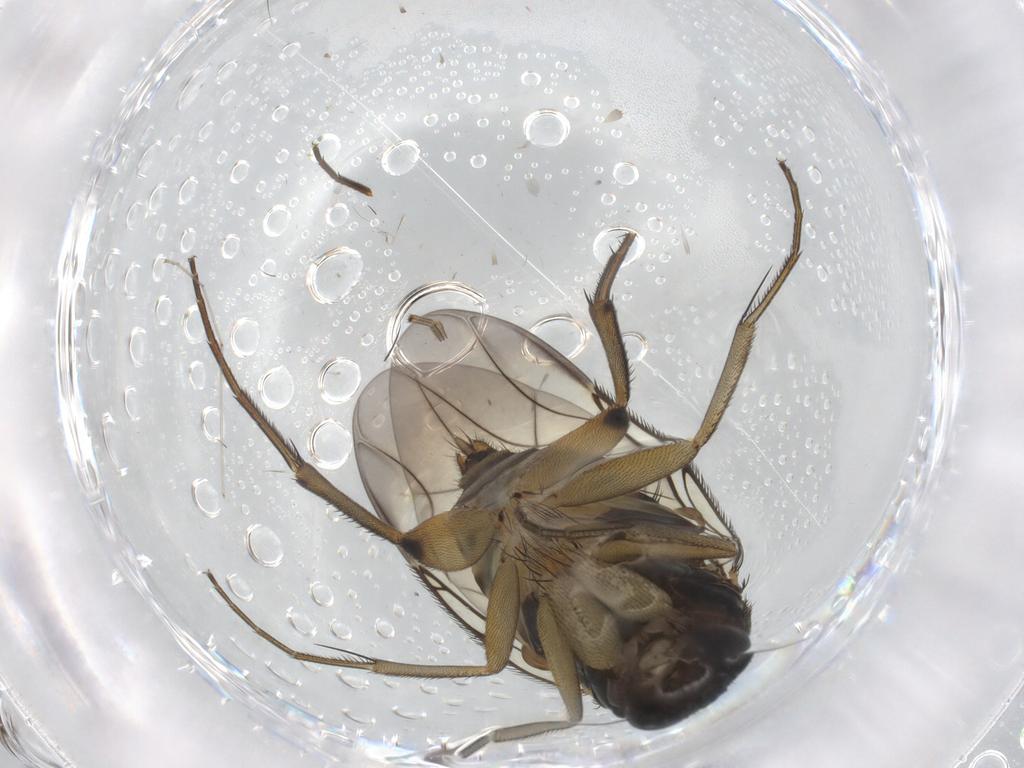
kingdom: Animalia
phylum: Arthropoda
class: Insecta
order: Diptera
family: Phoridae
